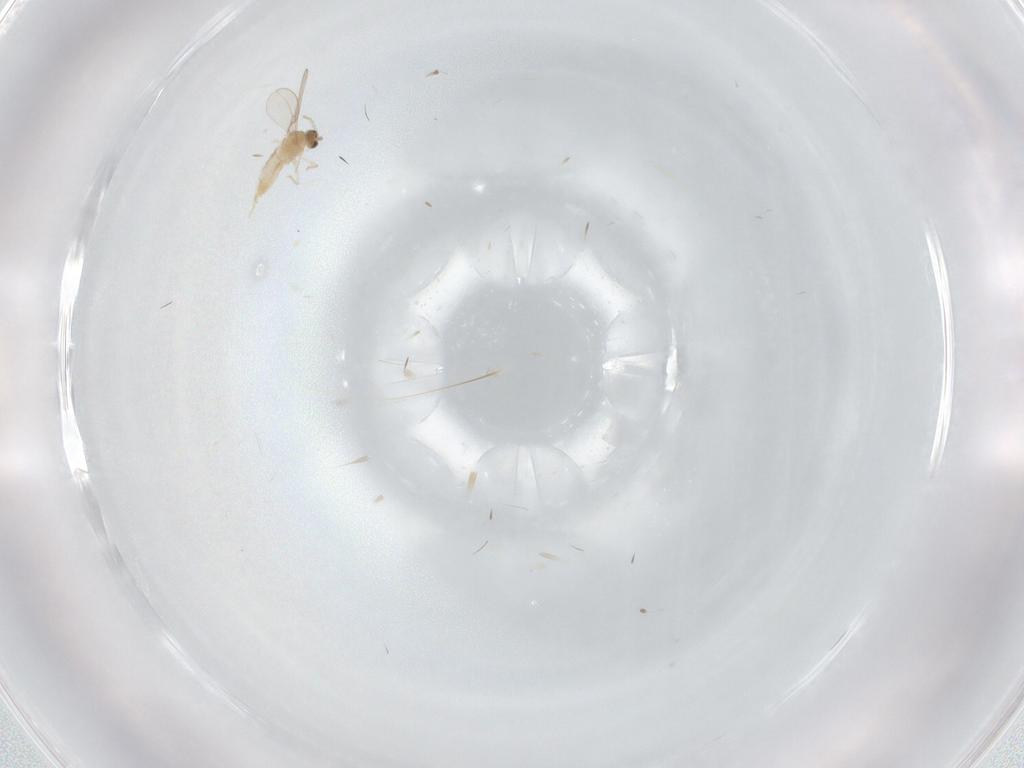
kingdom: Animalia
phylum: Arthropoda
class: Insecta
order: Diptera
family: Cecidomyiidae
